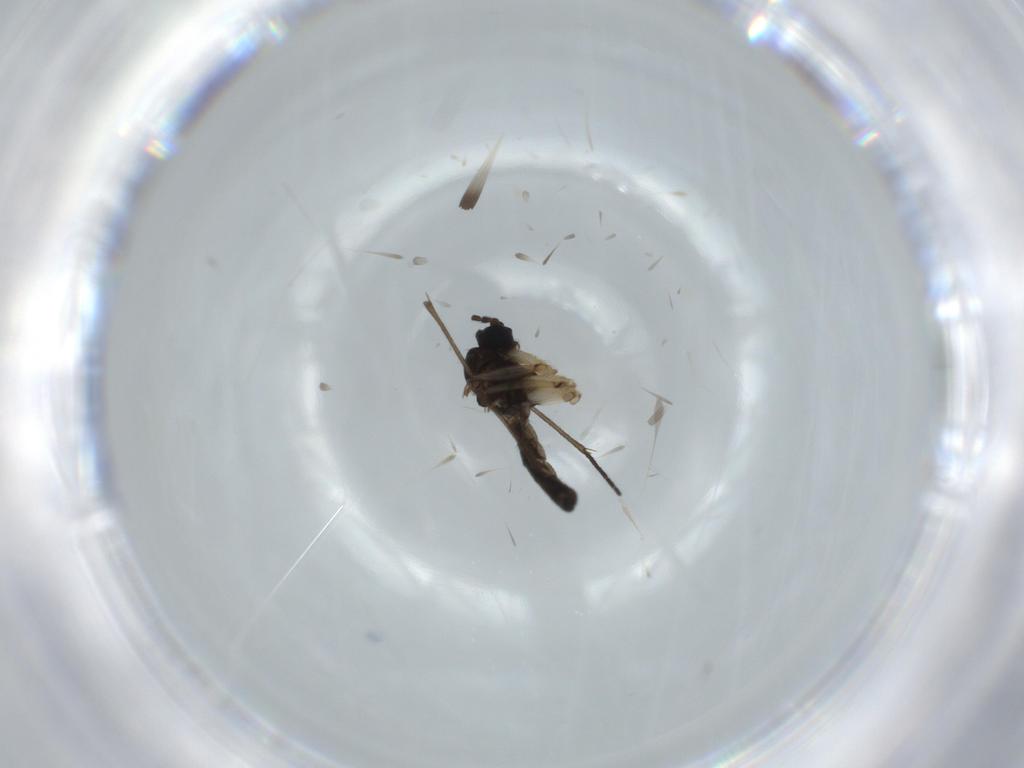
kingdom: Animalia
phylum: Arthropoda
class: Insecta
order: Diptera
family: Sciaridae
